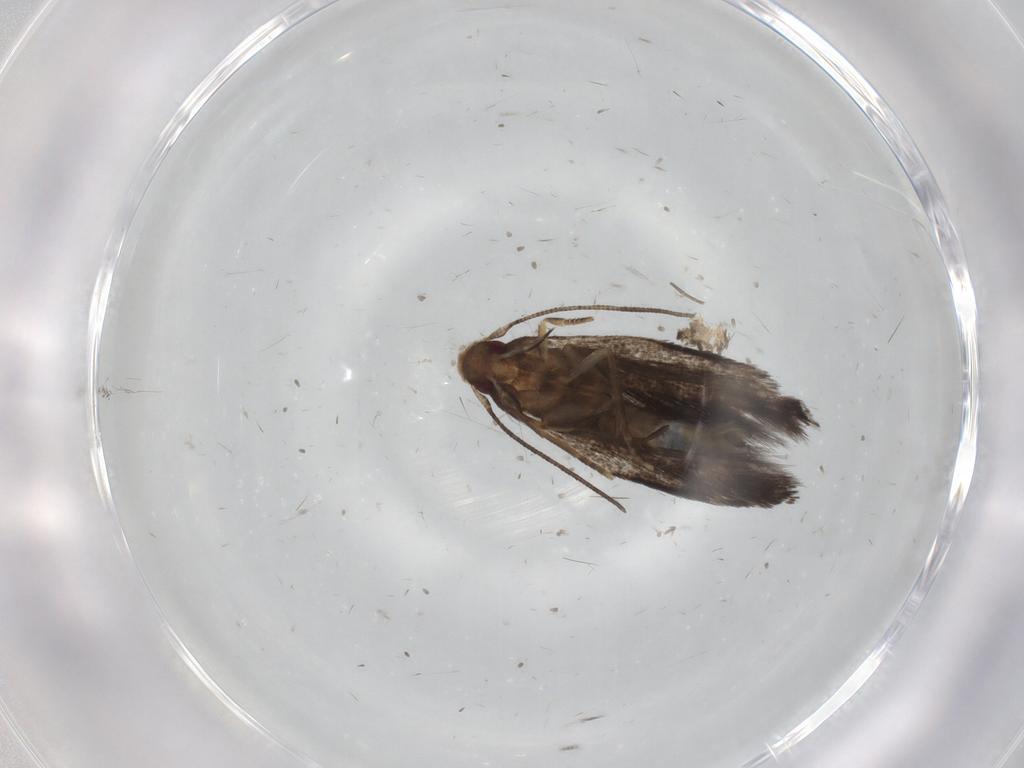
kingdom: Animalia
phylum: Arthropoda
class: Insecta
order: Lepidoptera
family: Gelechiidae
